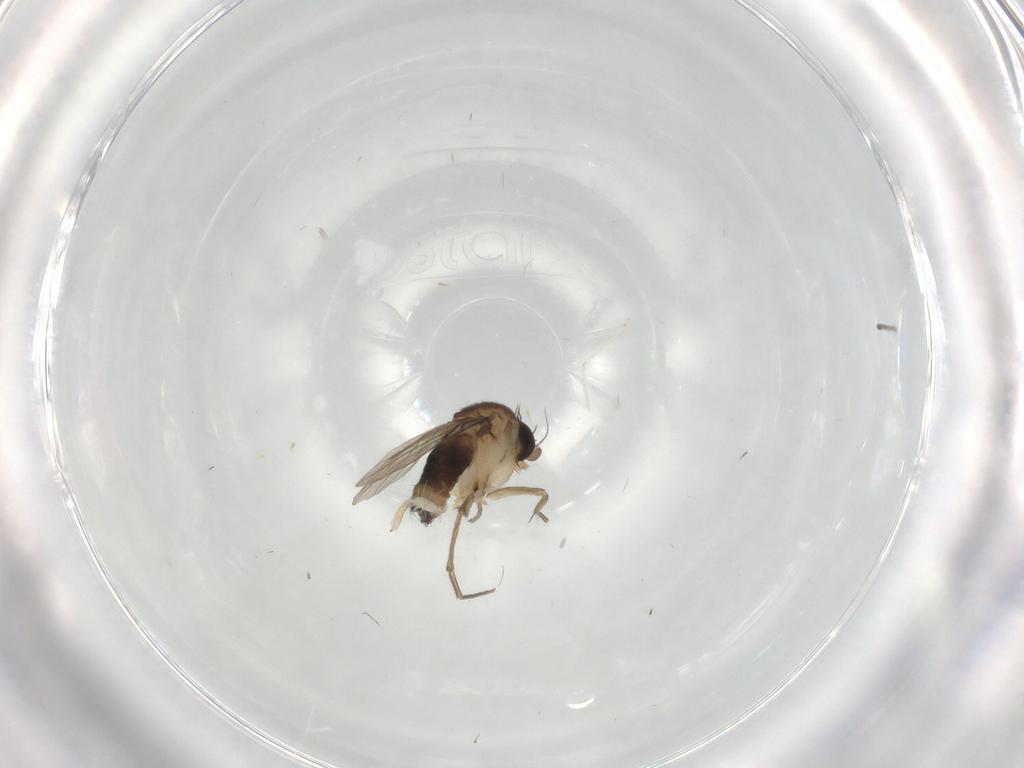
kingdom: Animalia
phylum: Arthropoda
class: Insecta
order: Diptera
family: Phoridae
